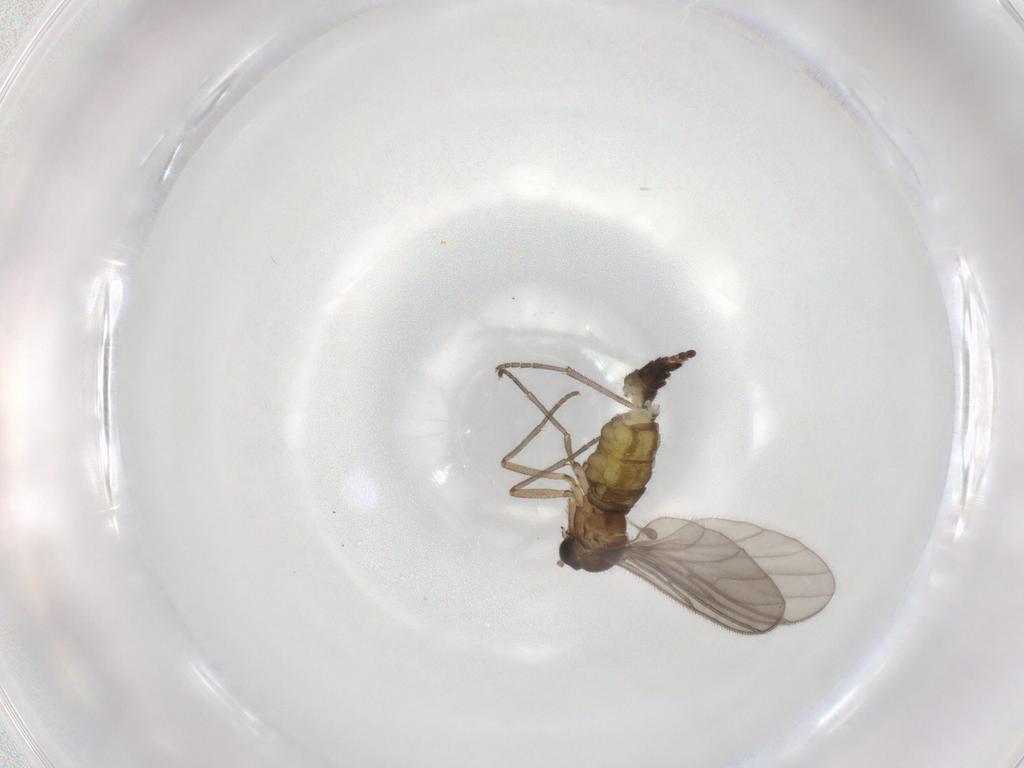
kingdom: Animalia
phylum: Arthropoda
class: Insecta
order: Diptera
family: Sciaridae
